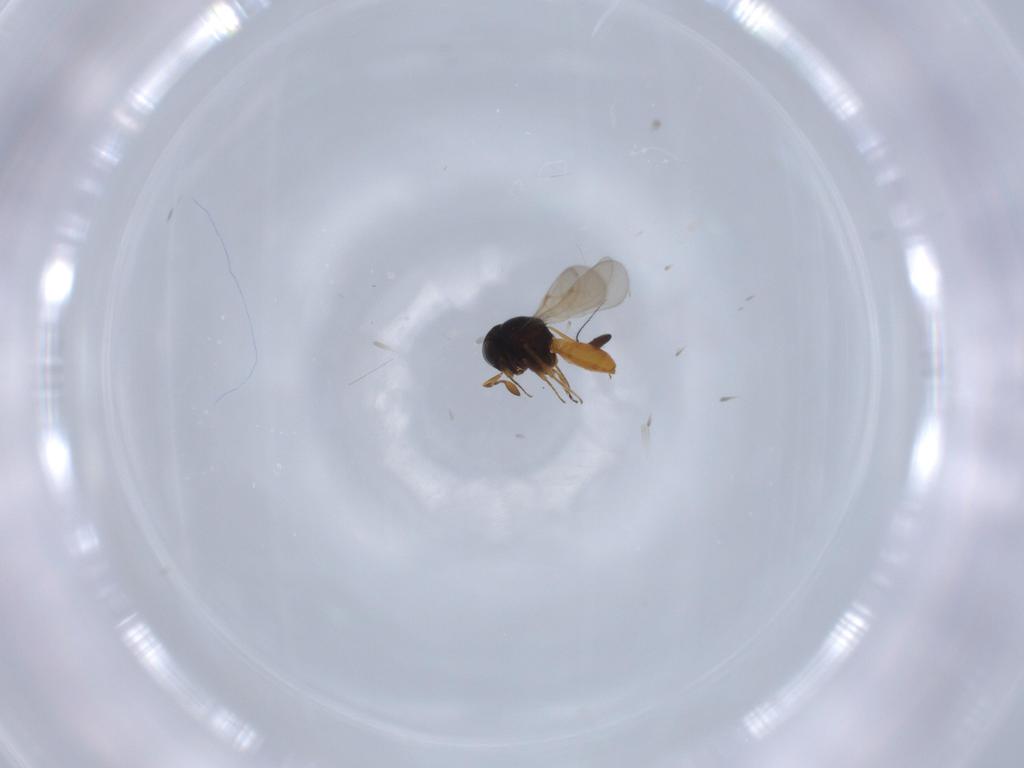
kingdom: Animalia
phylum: Arthropoda
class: Insecta
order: Hymenoptera
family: Scelionidae
